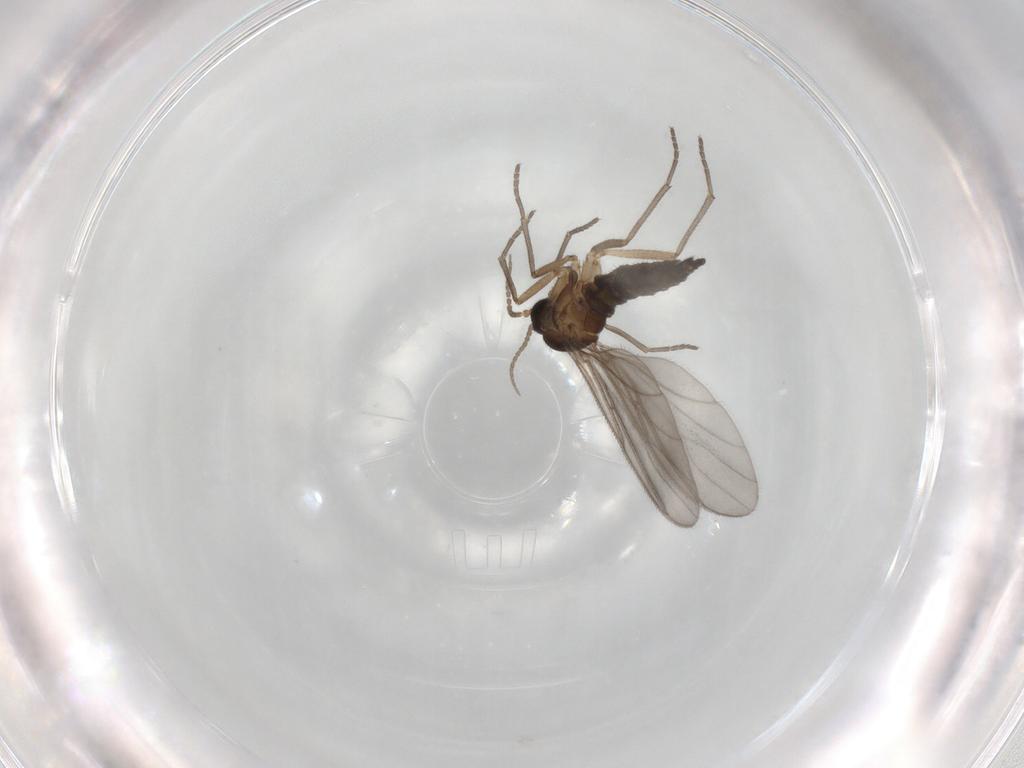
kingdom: Animalia
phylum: Arthropoda
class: Insecta
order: Diptera
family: Sciaridae
